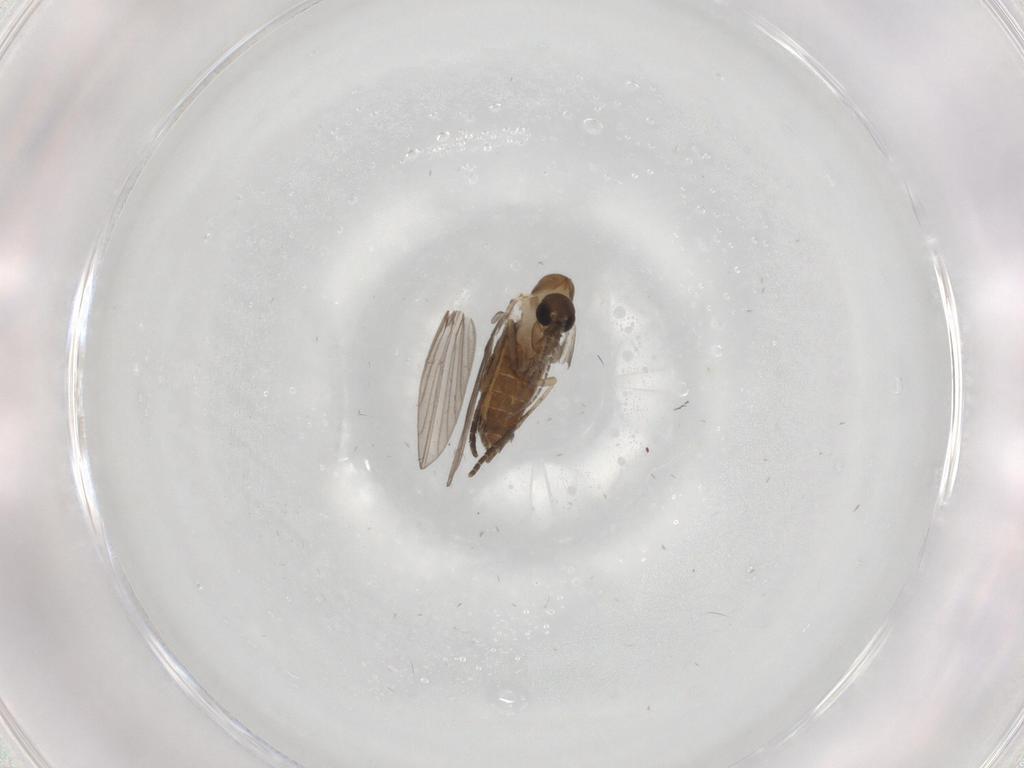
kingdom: Animalia
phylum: Arthropoda
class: Insecta
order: Diptera
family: Psychodidae
